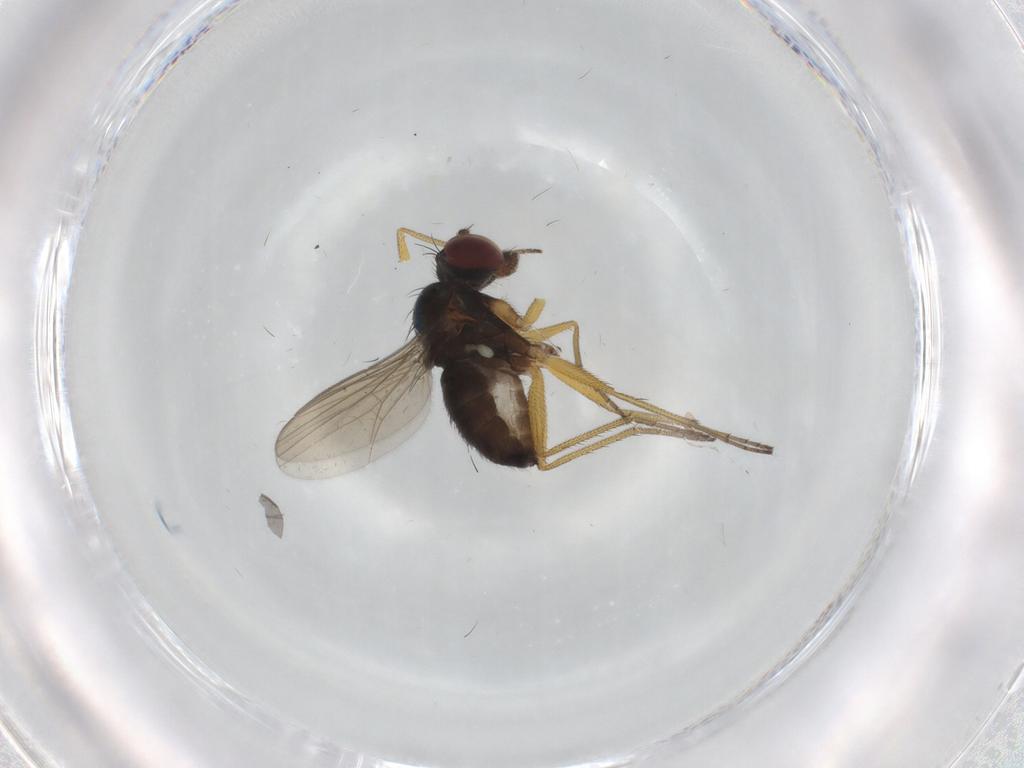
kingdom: Animalia
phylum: Arthropoda
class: Insecta
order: Diptera
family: Dolichopodidae
